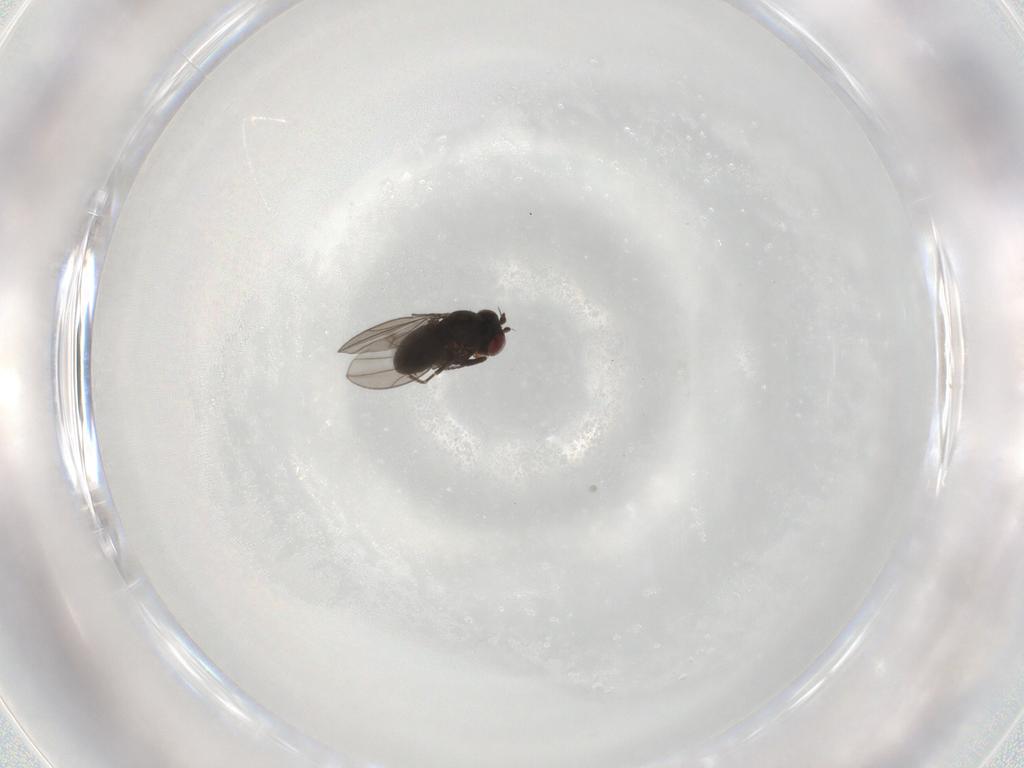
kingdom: Animalia
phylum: Arthropoda
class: Insecta
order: Diptera
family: Ephydridae
